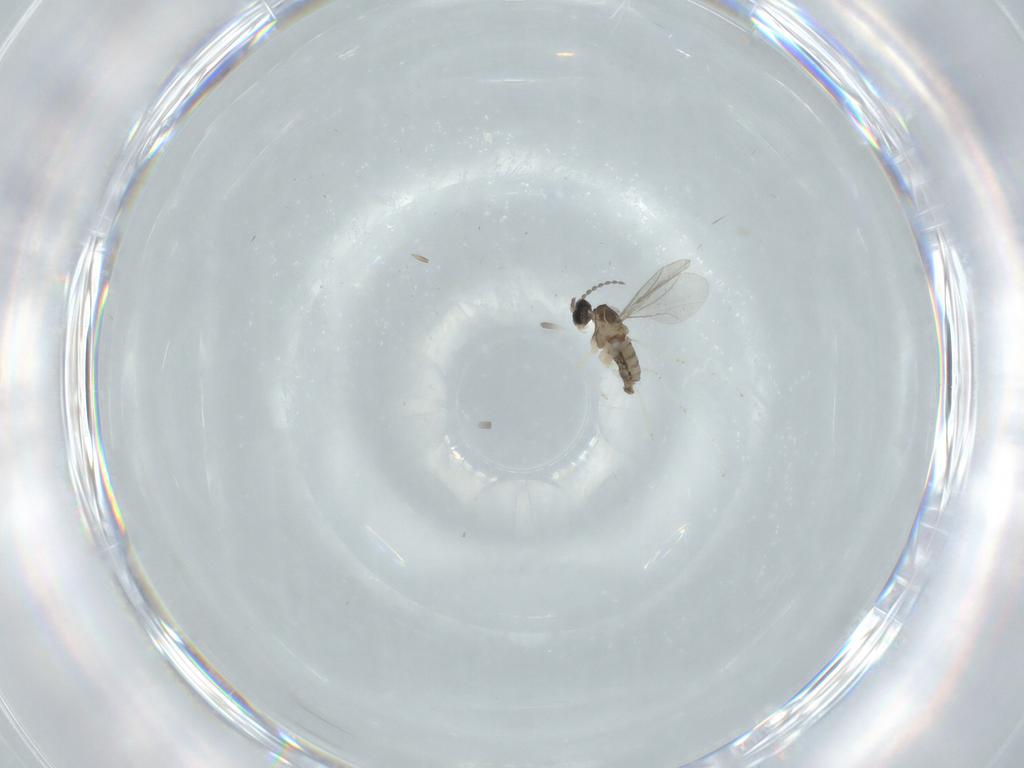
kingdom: Animalia
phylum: Arthropoda
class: Insecta
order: Diptera
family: Cecidomyiidae
